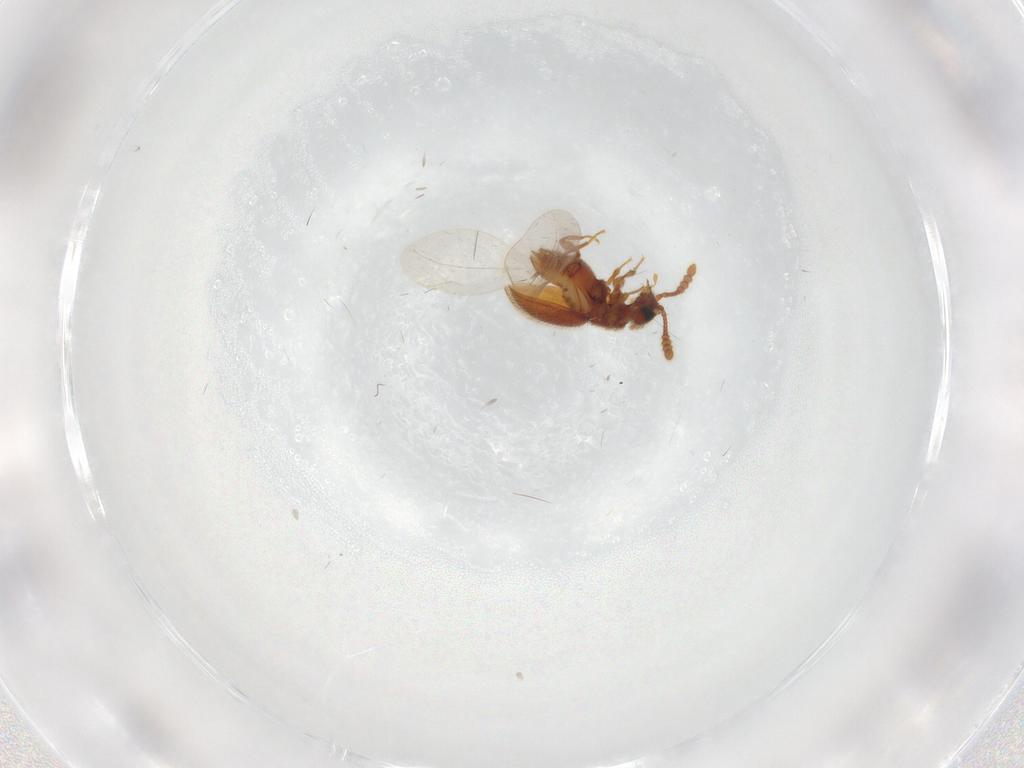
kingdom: Animalia
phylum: Arthropoda
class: Insecta
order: Coleoptera
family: Staphylinidae
